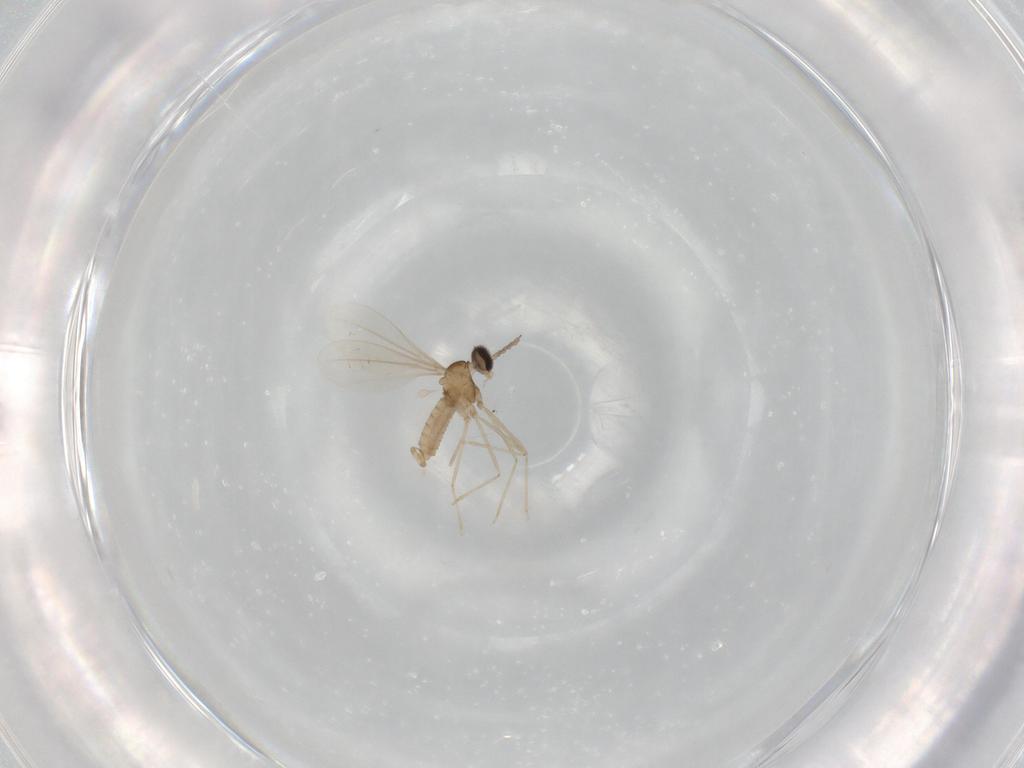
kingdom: Animalia
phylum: Arthropoda
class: Insecta
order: Diptera
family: Cecidomyiidae
